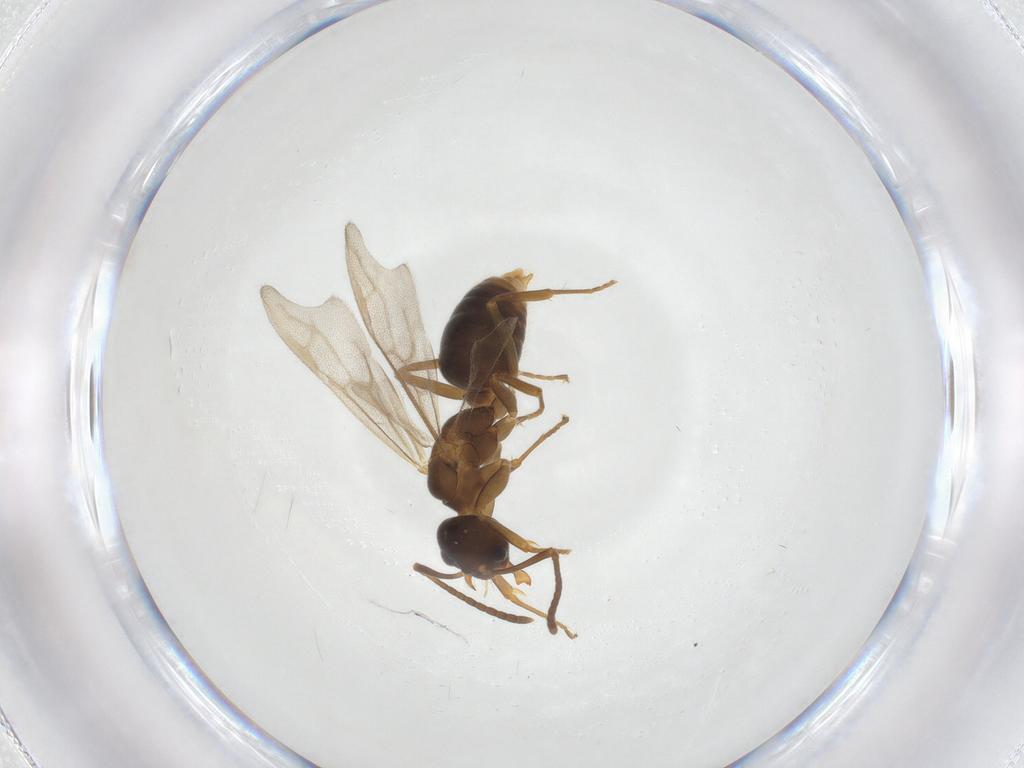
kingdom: Animalia
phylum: Arthropoda
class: Insecta
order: Hymenoptera
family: Formicidae
